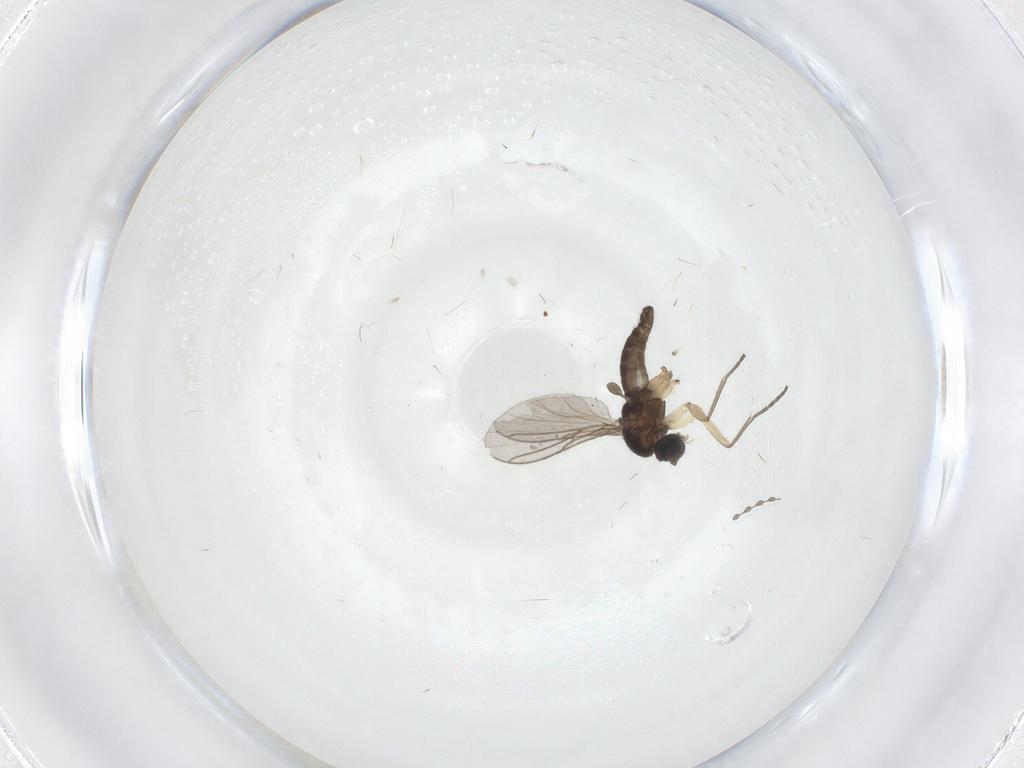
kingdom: Animalia
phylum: Arthropoda
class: Insecta
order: Diptera
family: Sciaridae
